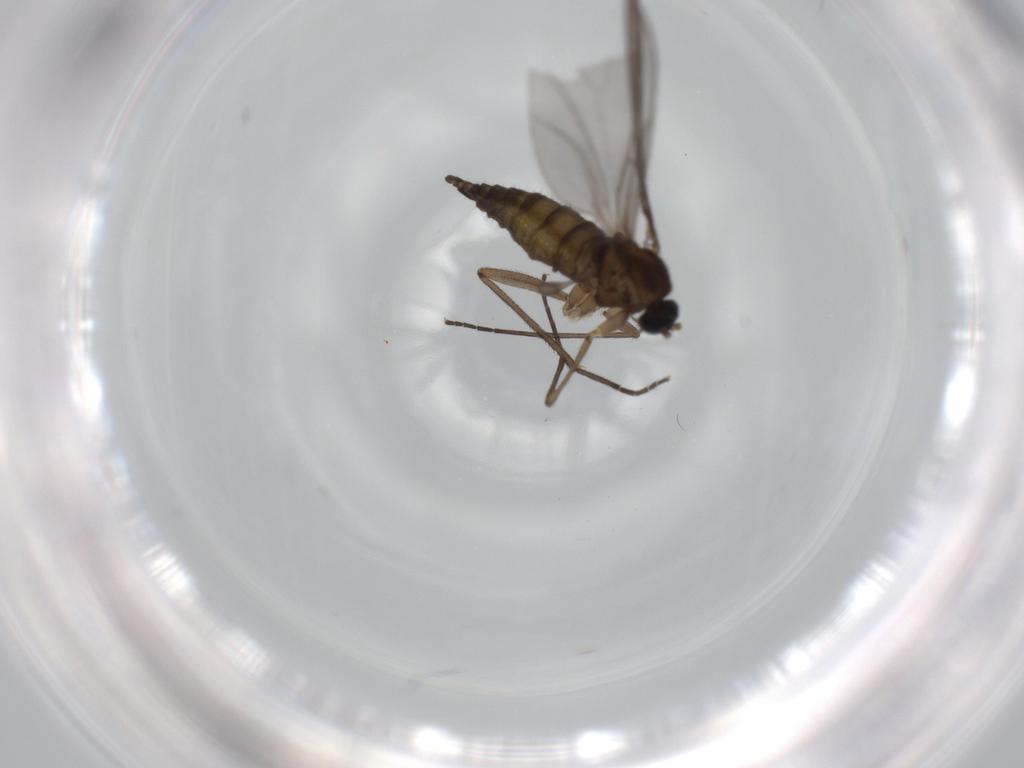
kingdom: Animalia
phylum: Arthropoda
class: Insecta
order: Diptera
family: Sciaridae
